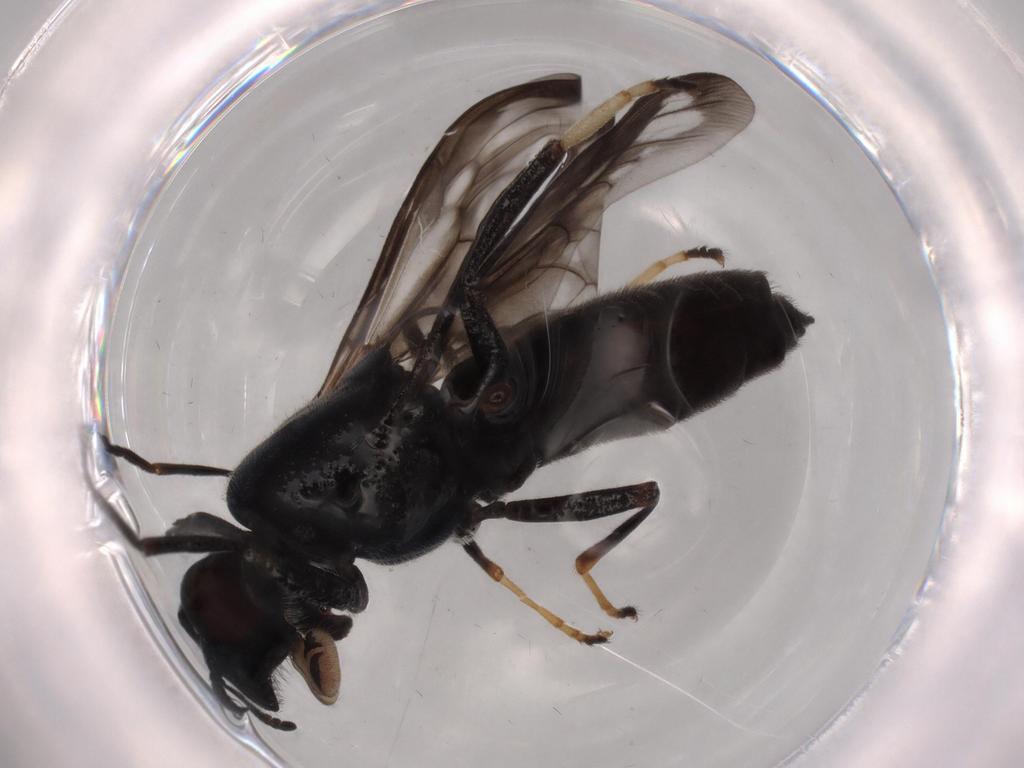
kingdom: Animalia
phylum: Arthropoda
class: Insecta
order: Diptera
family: Stratiomyidae
